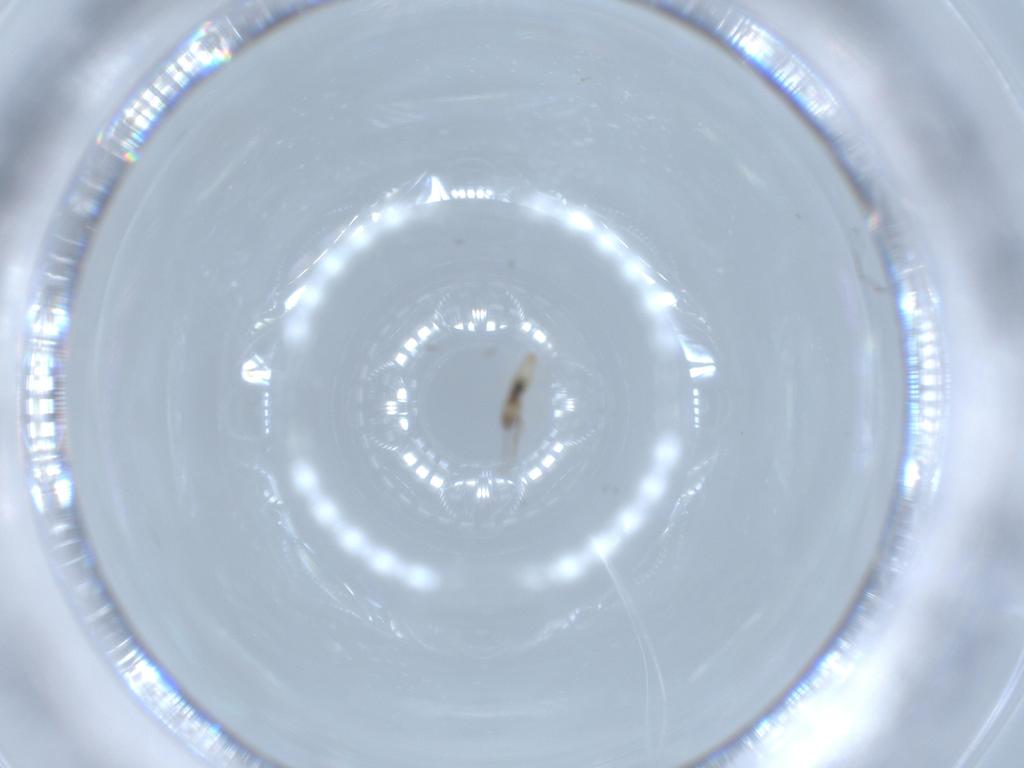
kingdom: Animalia
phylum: Arthropoda
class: Insecta
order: Diptera
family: Cecidomyiidae
